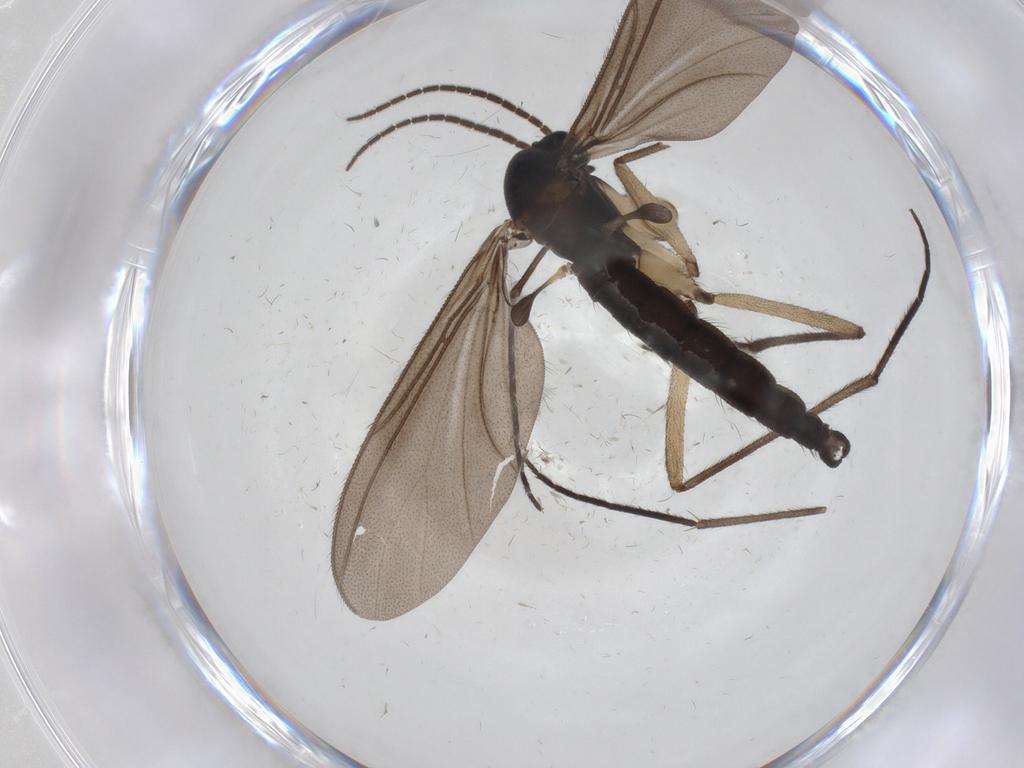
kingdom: Animalia
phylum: Arthropoda
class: Insecta
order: Diptera
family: Sciaridae
